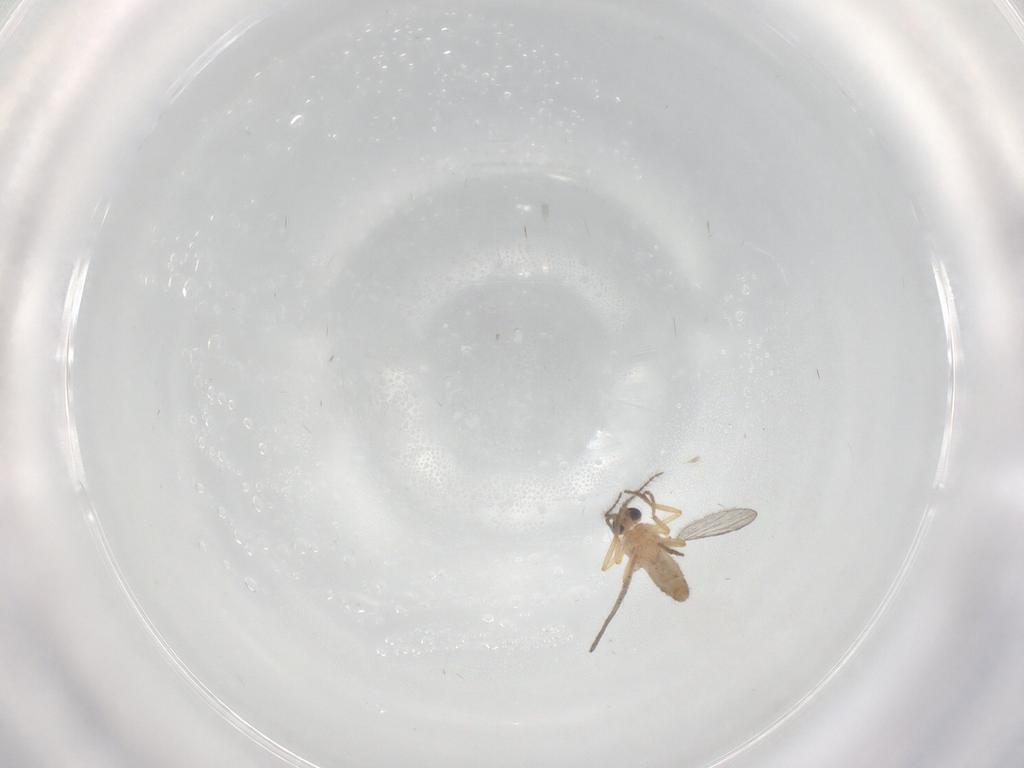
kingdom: Animalia
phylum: Arthropoda
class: Insecta
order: Diptera
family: Ceratopogonidae
